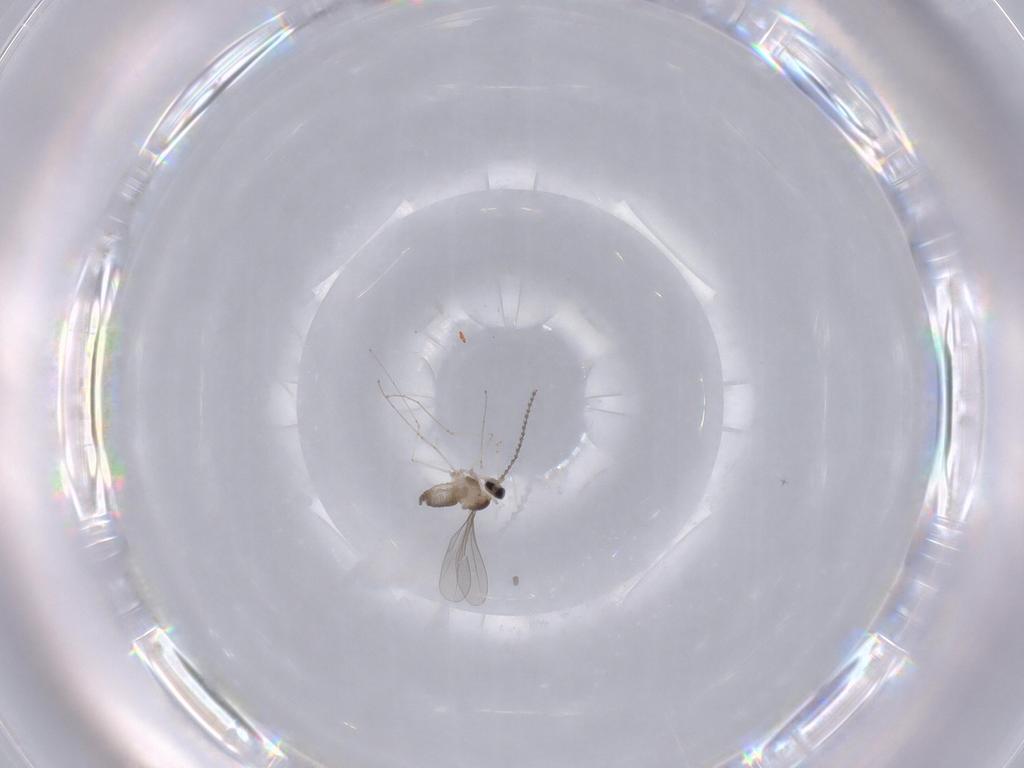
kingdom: Animalia
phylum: Arthropoda
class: Insecta
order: Diptera
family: Cecidomyiidae
